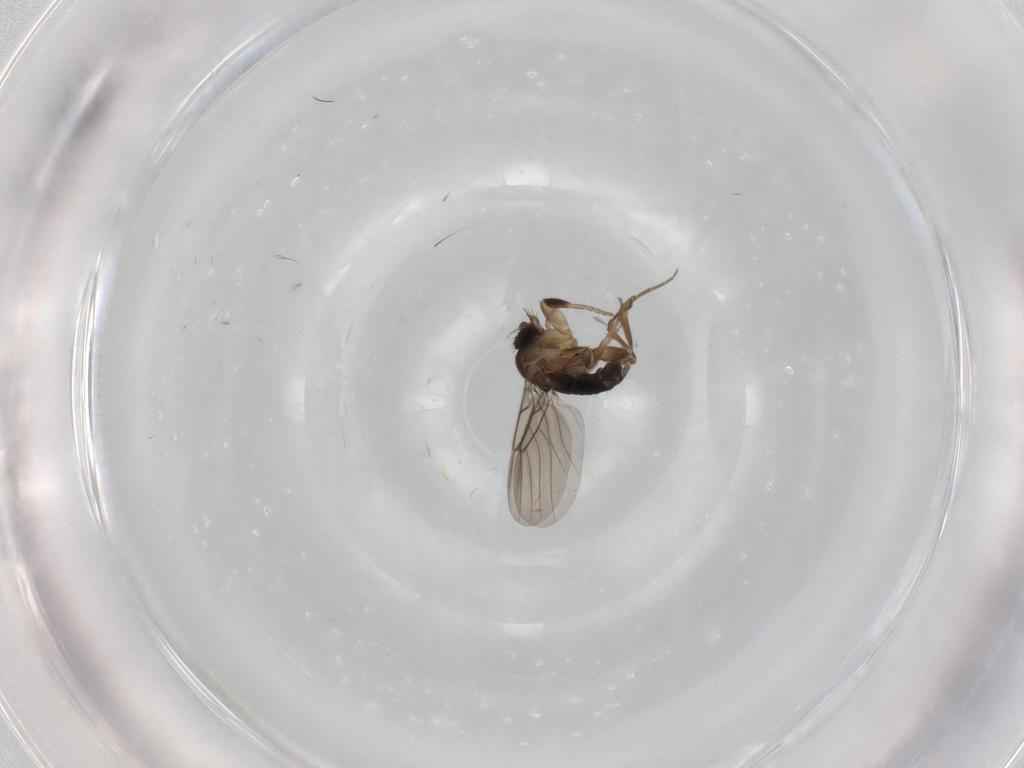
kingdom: Animalia
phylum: Arthropoda
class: Insecta
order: Diptera
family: Phoridae
